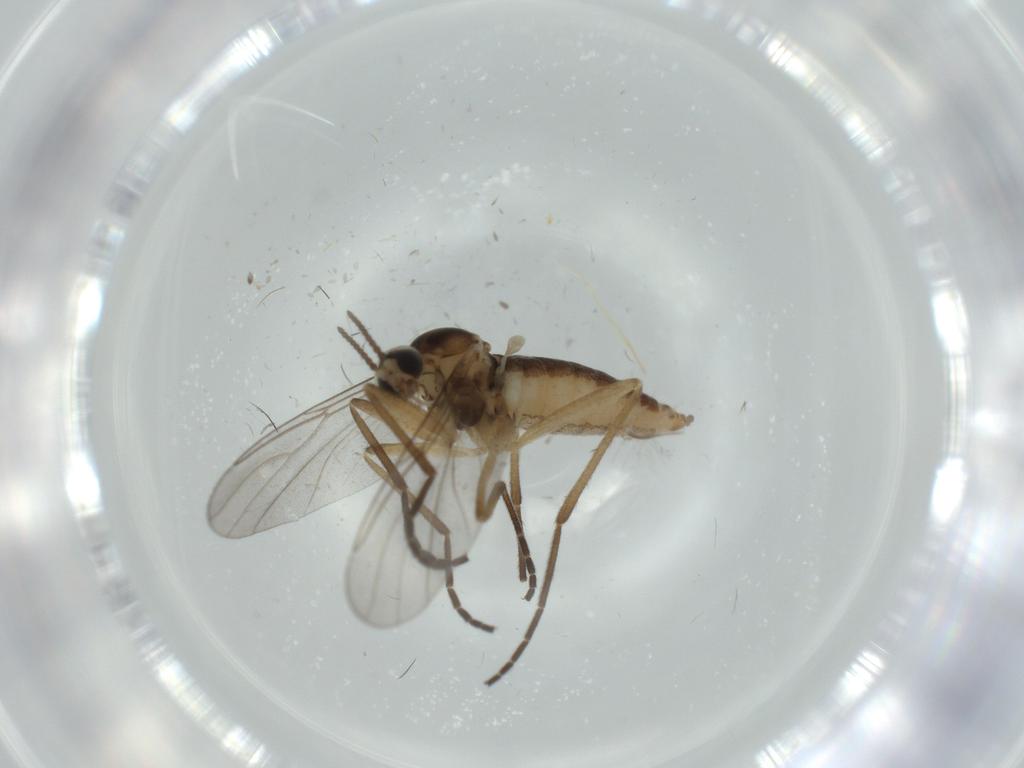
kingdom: Animalia
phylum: Arthropoda
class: Insecta
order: Diptera
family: Cecidomyiidae
